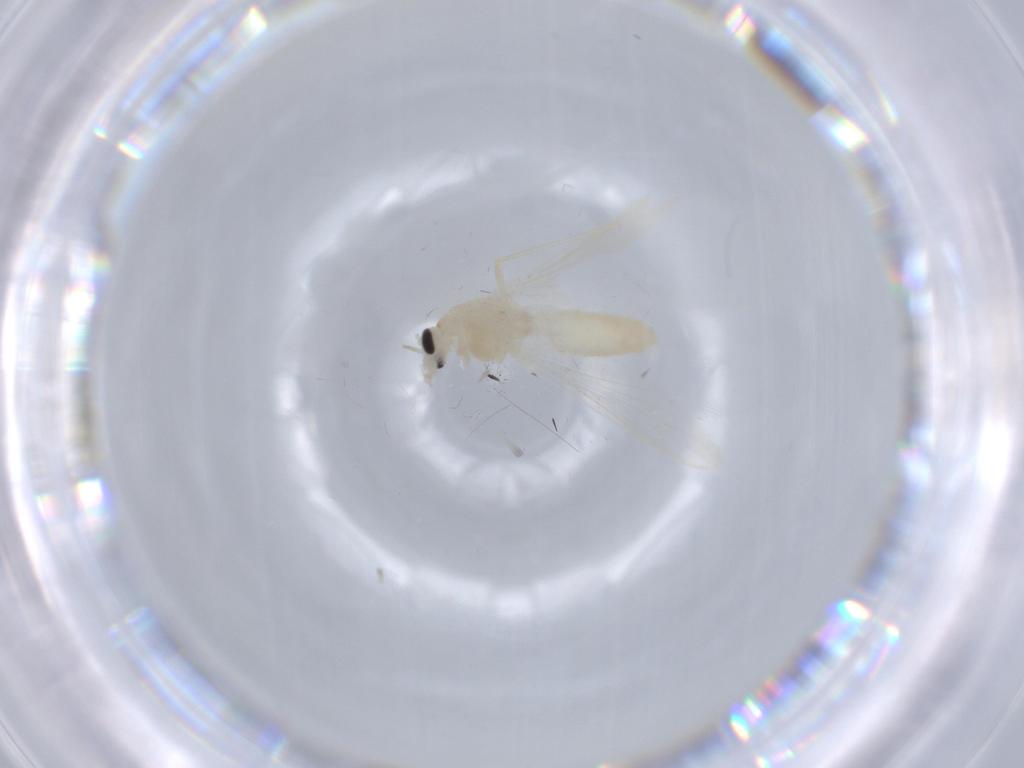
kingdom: Animalia
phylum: Arthropoda
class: Insecta
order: Diptera
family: Chironomidae
